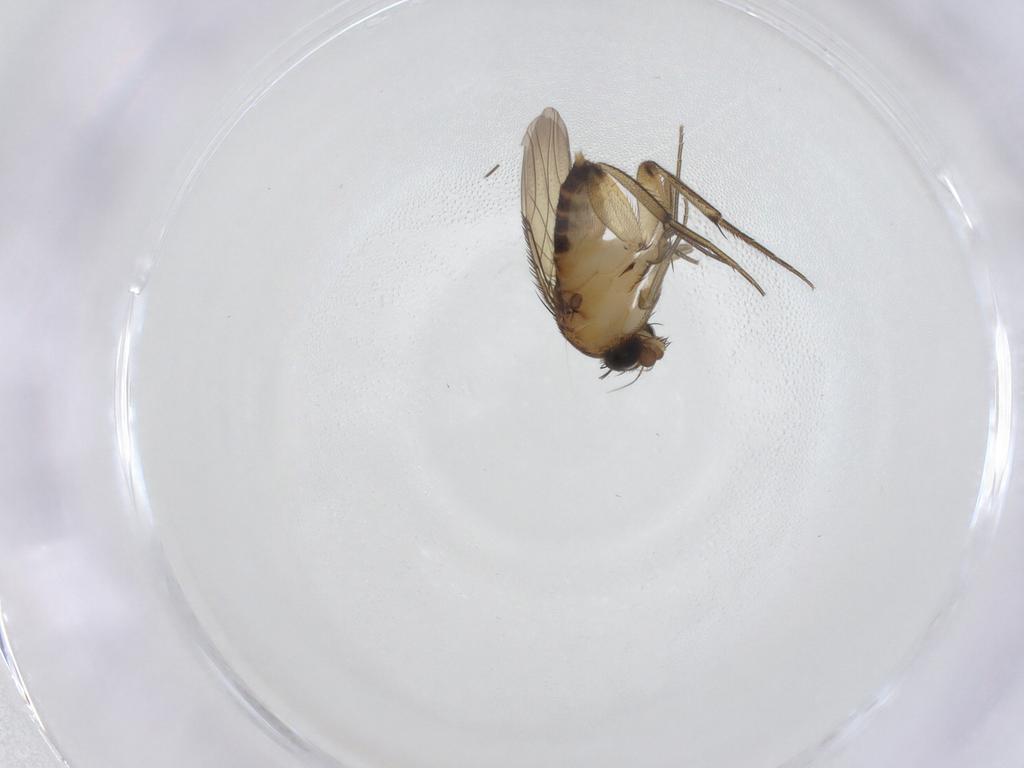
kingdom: Animalia
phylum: Arthropoda
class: Insecta
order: Diptera
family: Phoridae
